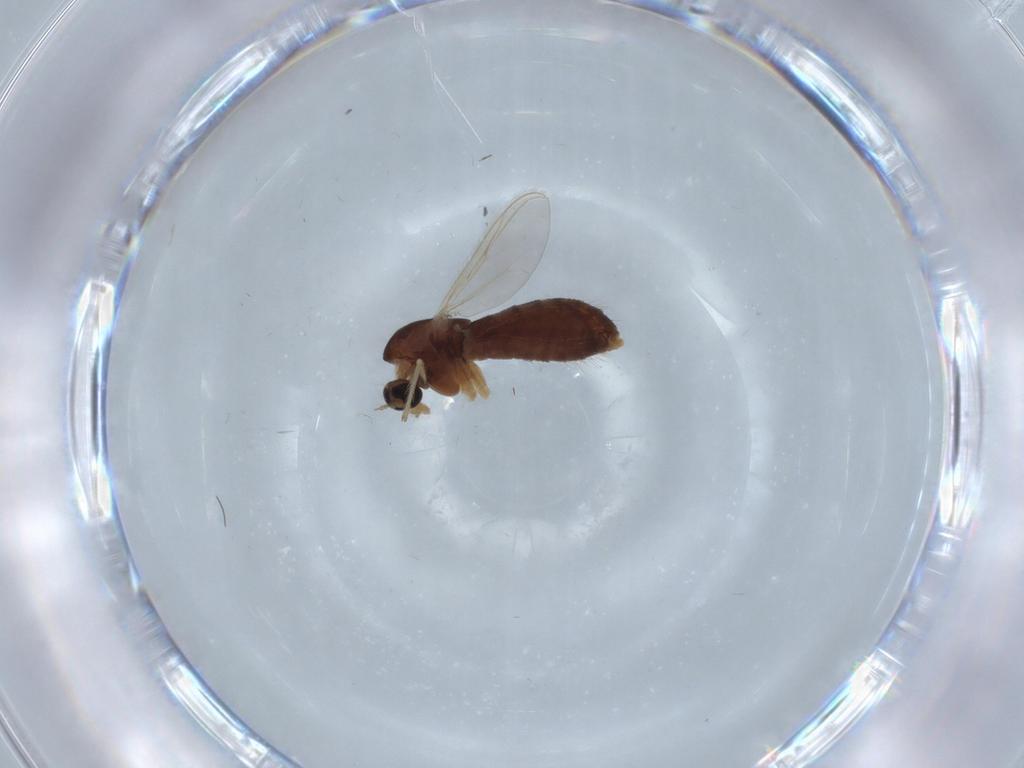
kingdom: Animalia
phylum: Arthropoda
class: Insecta
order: Diptera
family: Chironomidae
